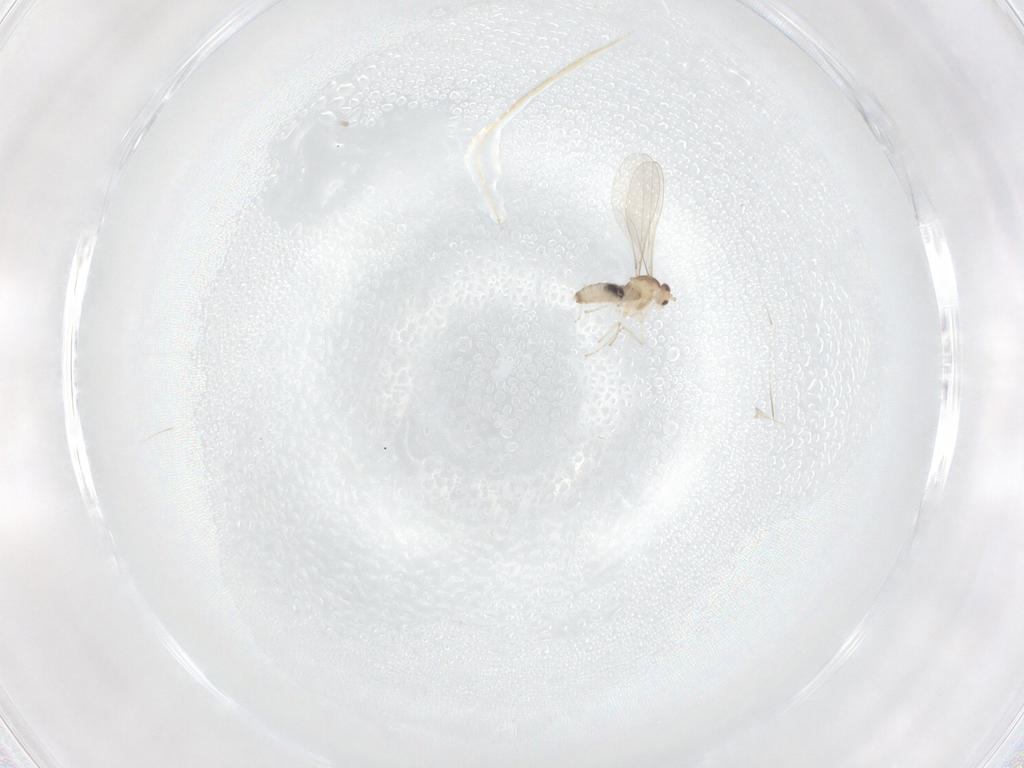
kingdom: Animalia
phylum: Arthropoda
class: Insecta
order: Diptera
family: Cecidomyiidae
